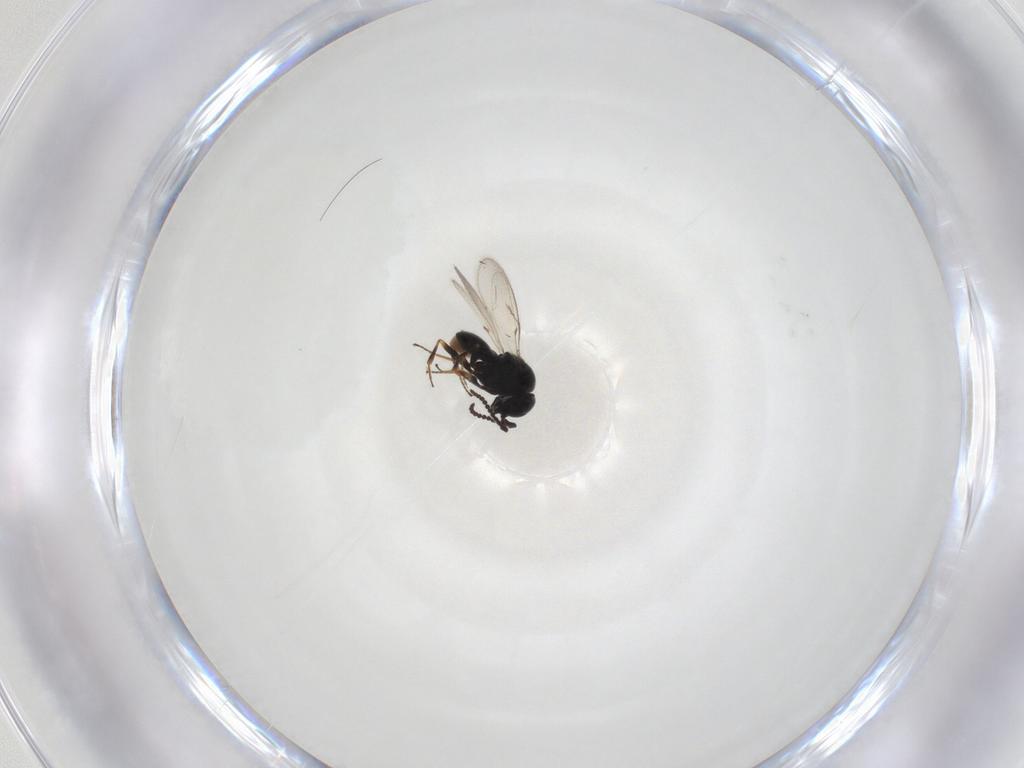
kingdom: Animalia
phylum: Arthropoda
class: Insecta
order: Hymenoptera
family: Scelionidae
